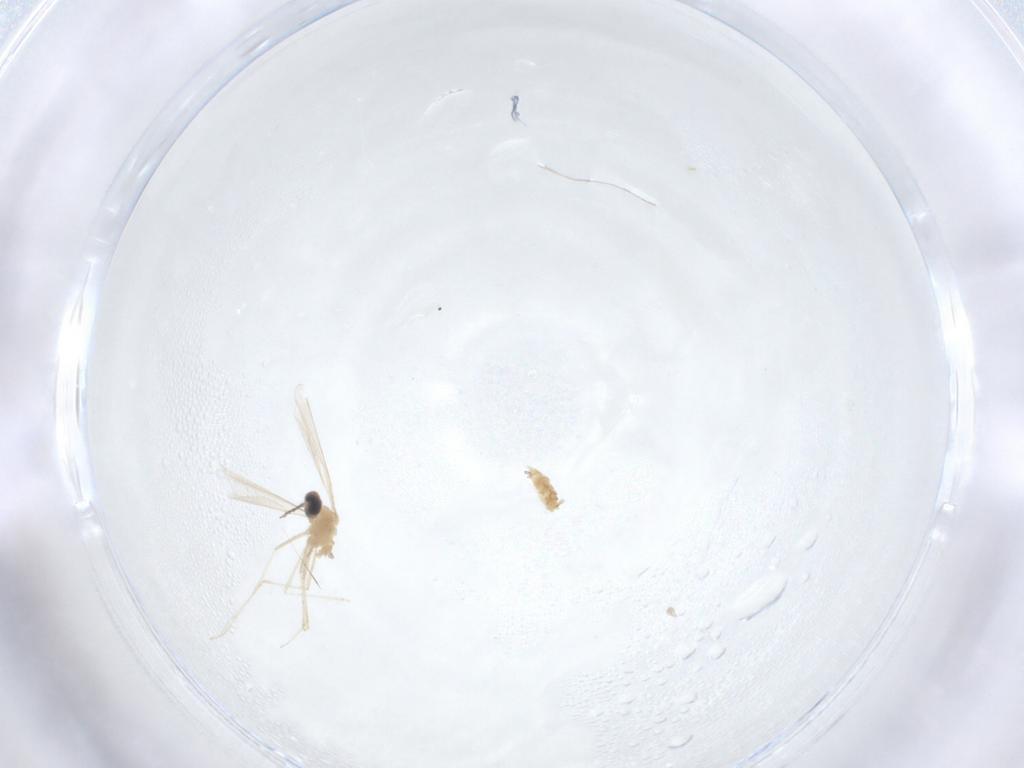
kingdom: Animalia
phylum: Arthropoda
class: Insecta
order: Diptera
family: Cecidomyiidae
